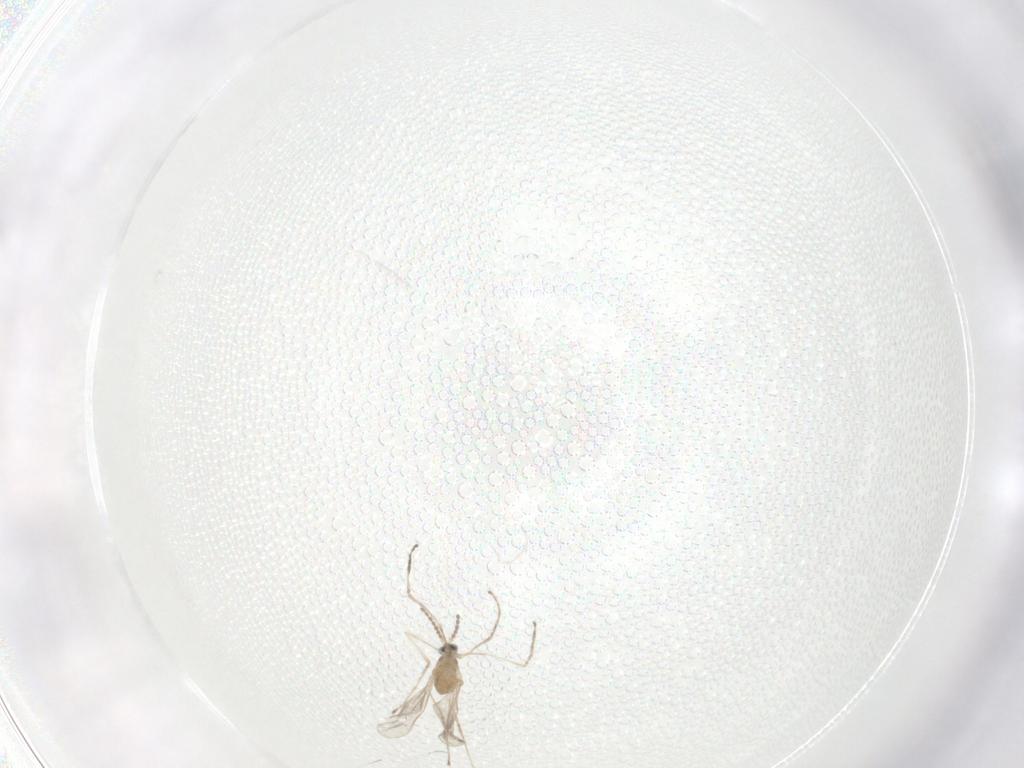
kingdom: Animalia
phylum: Arthropoda
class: Insecta
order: Diptera
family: Cecidomyiidae
